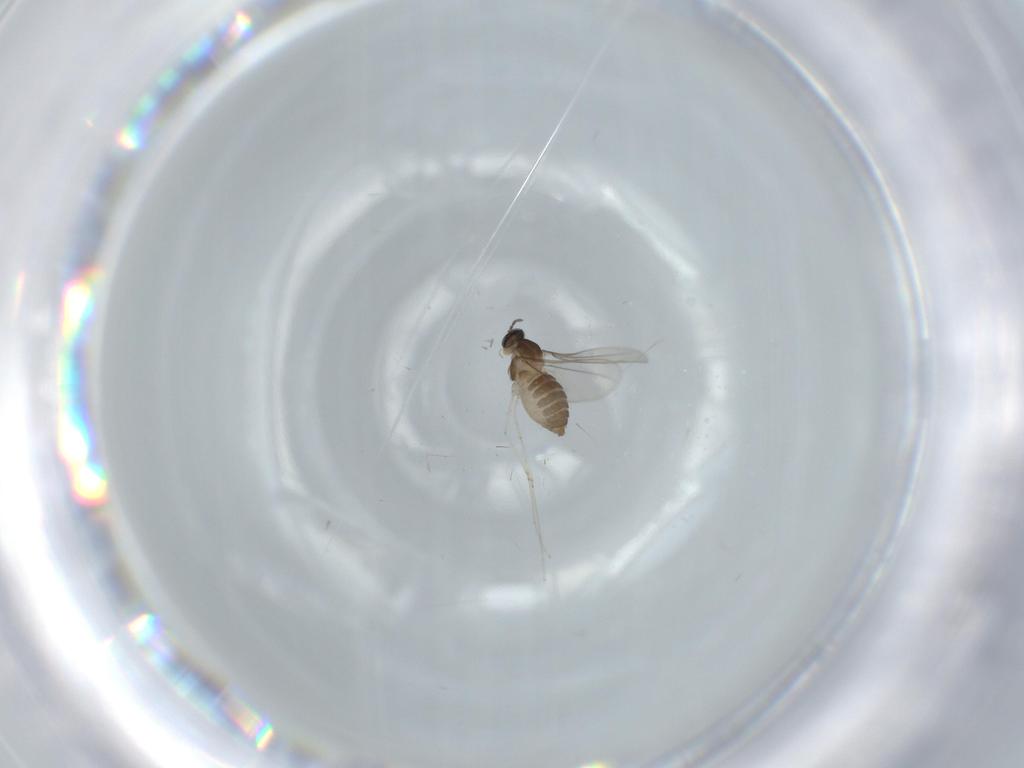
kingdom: Animalia
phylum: Arthropoda
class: Insecta
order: Diptera
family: Cecidomyiidae
